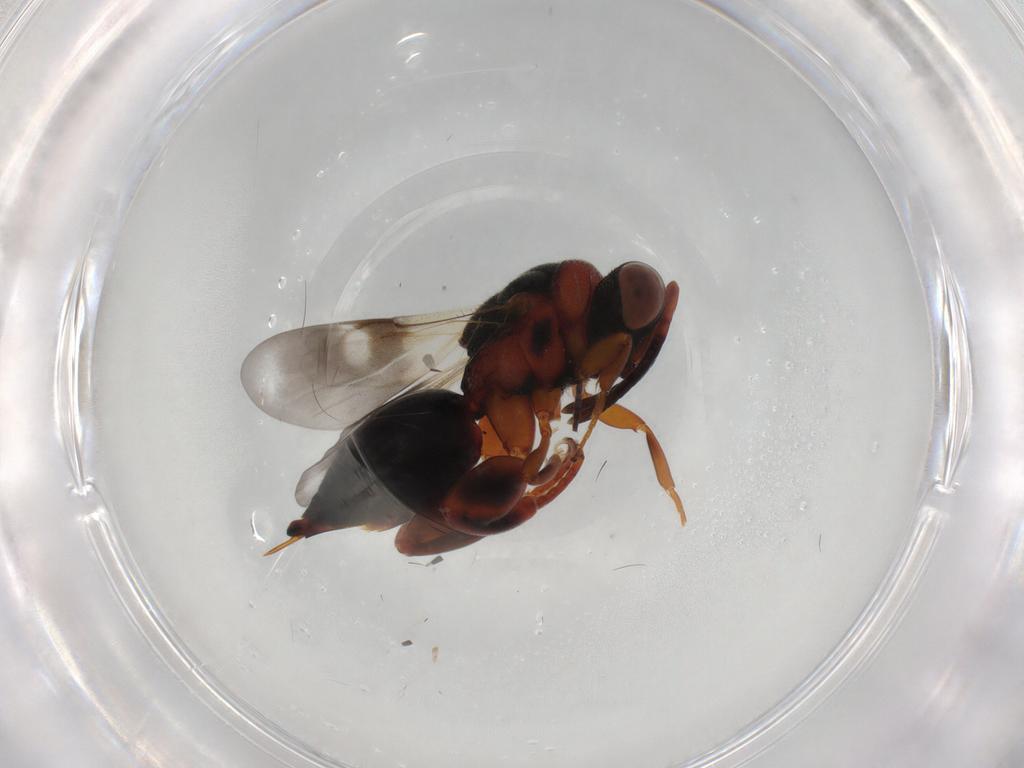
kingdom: Animalia
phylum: Arthropoda
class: Insecta
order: Hymenoptera
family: Chalcididae
